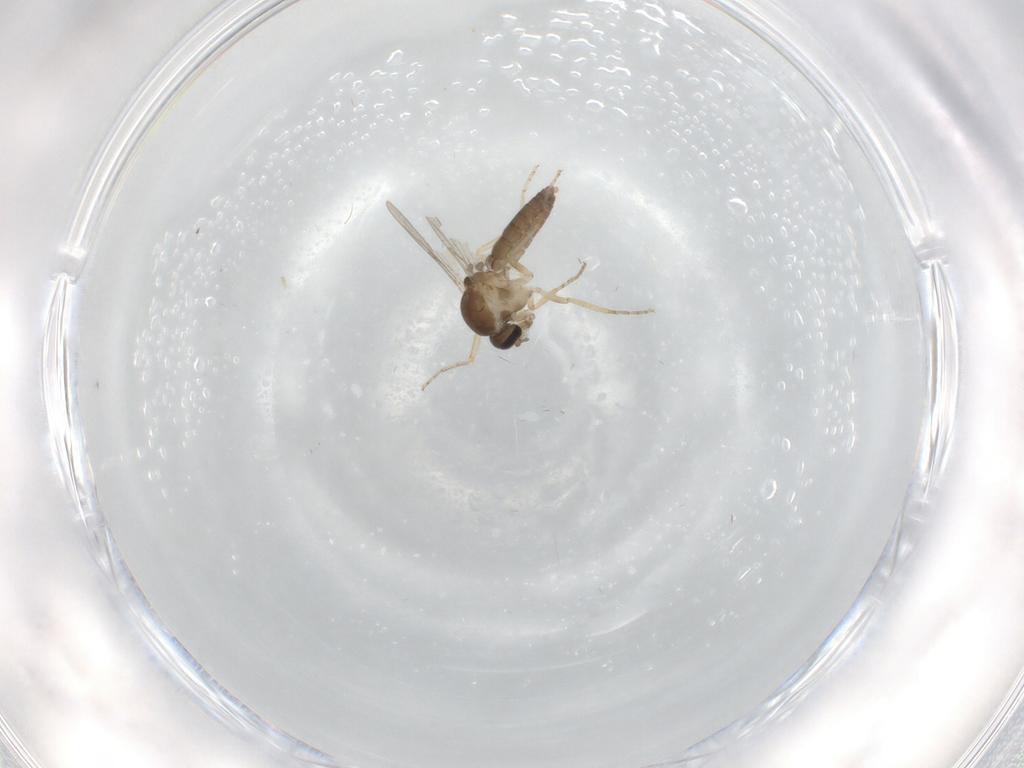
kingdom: Animalia
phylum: Arthropoda
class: Insecta
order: Diptera
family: Ceratopogonidae
